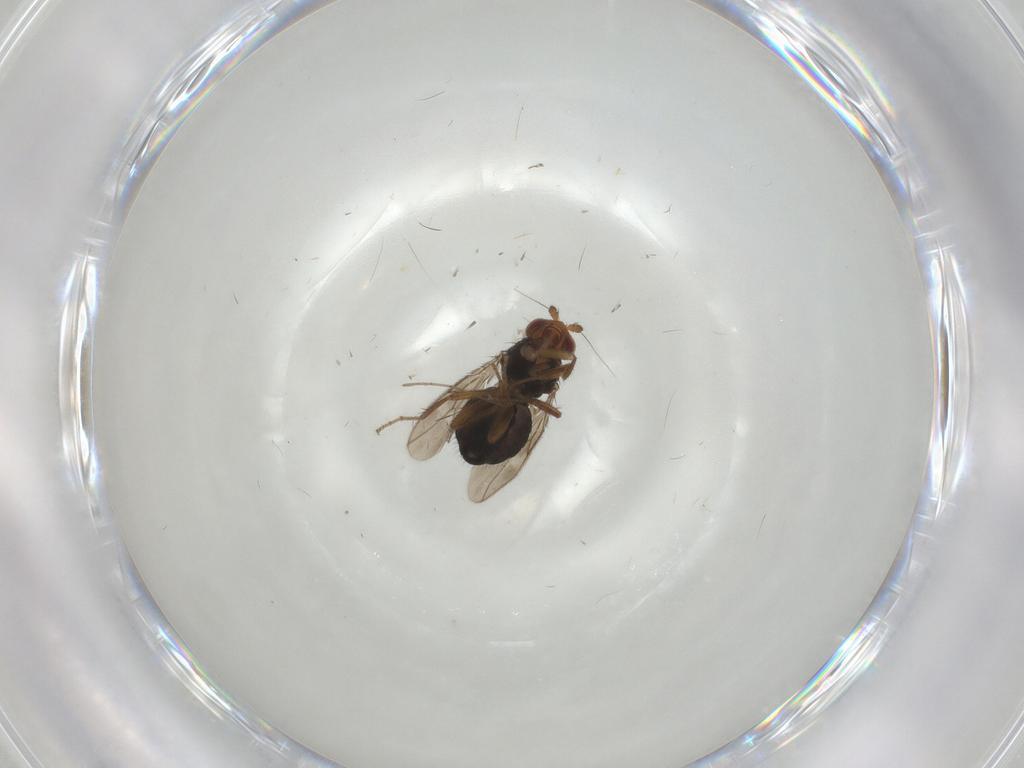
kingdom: Animalia
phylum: Arthropoda
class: Insecta
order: Diptera
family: Sphaeroceridae
